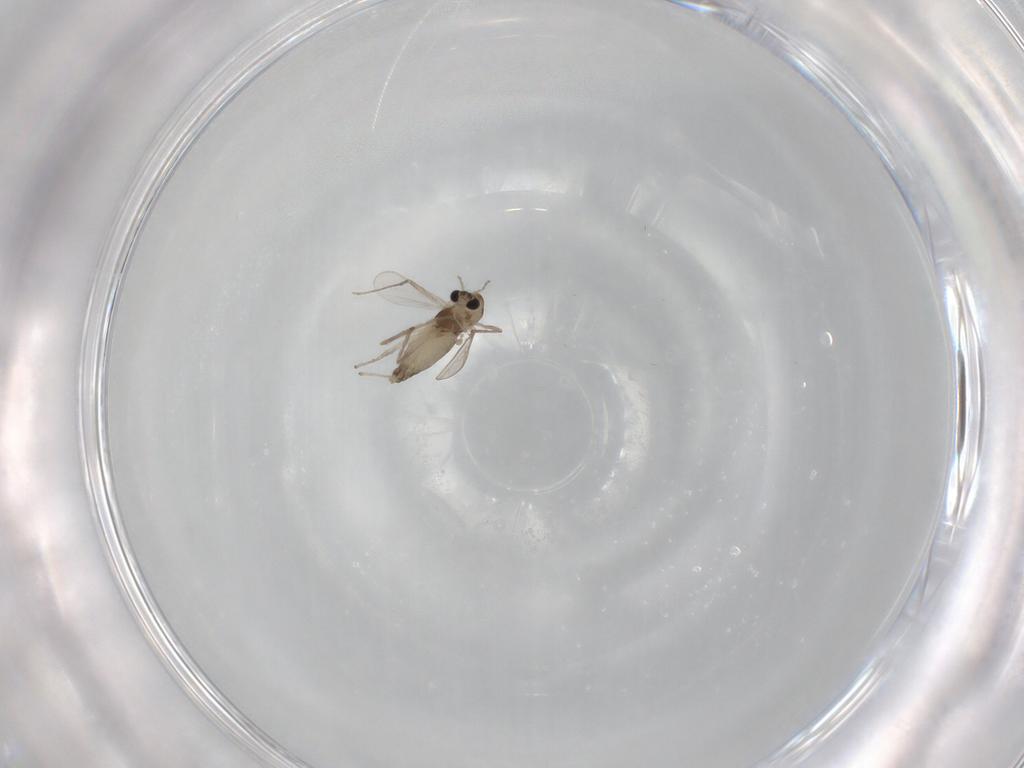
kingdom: Animalia
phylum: Arthropoda
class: Insecta
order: Diptera
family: Chironomidae
